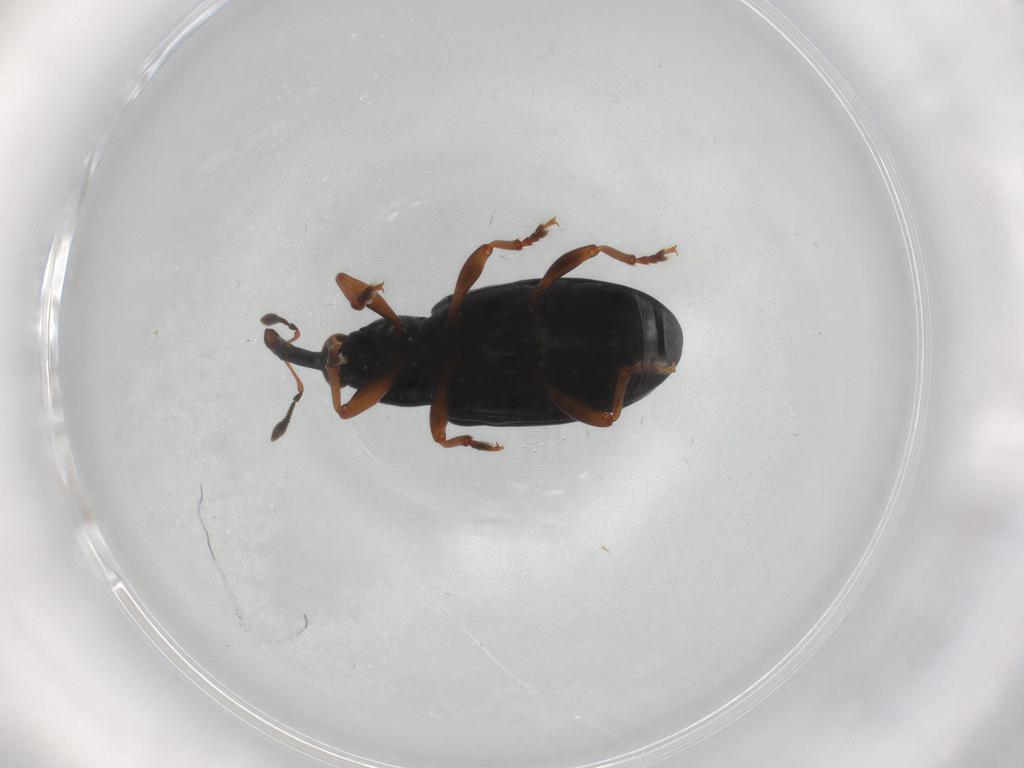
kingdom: Animalia
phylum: Arthropoda
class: Insecta
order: Coleoptera
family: Curculionidae
